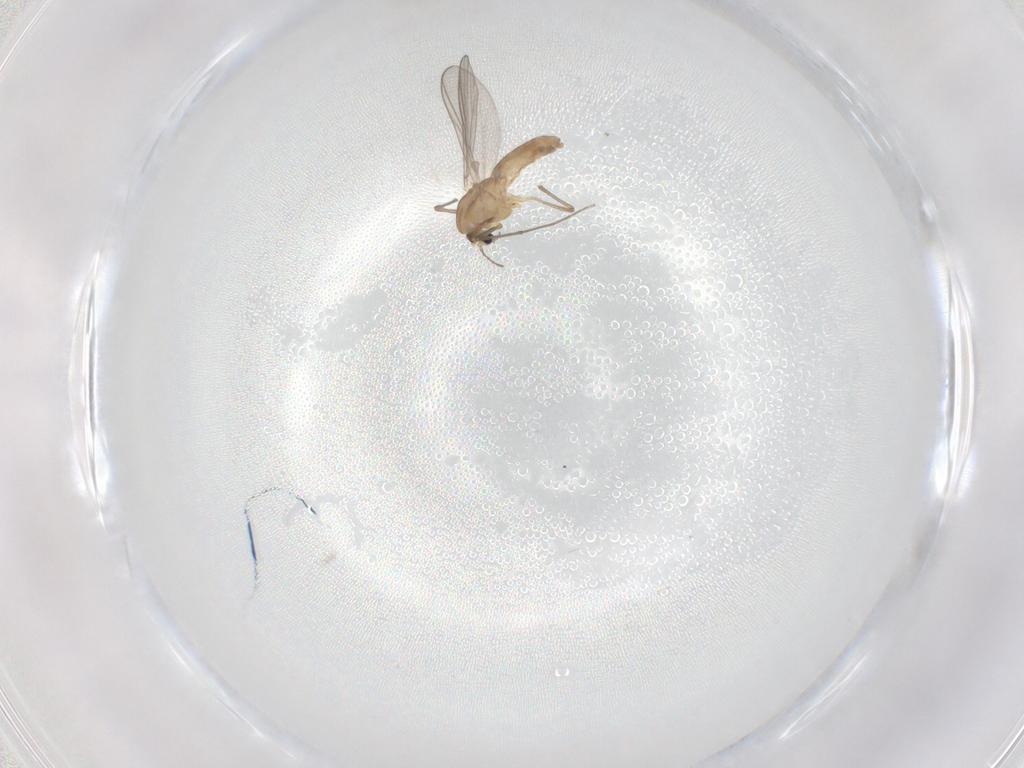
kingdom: Animalia
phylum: Arthropoda
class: Insecta
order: Diptera
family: Chironomidae
